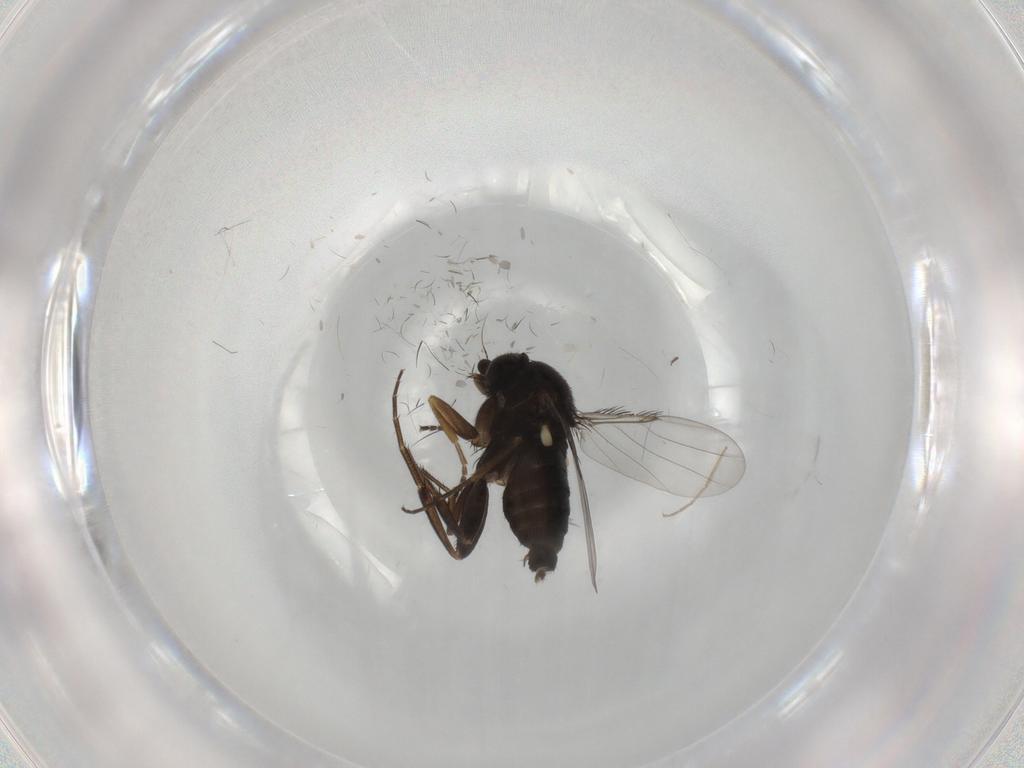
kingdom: Animalia
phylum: Arthropoda
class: Insecta
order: Diptera
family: Phoridae
